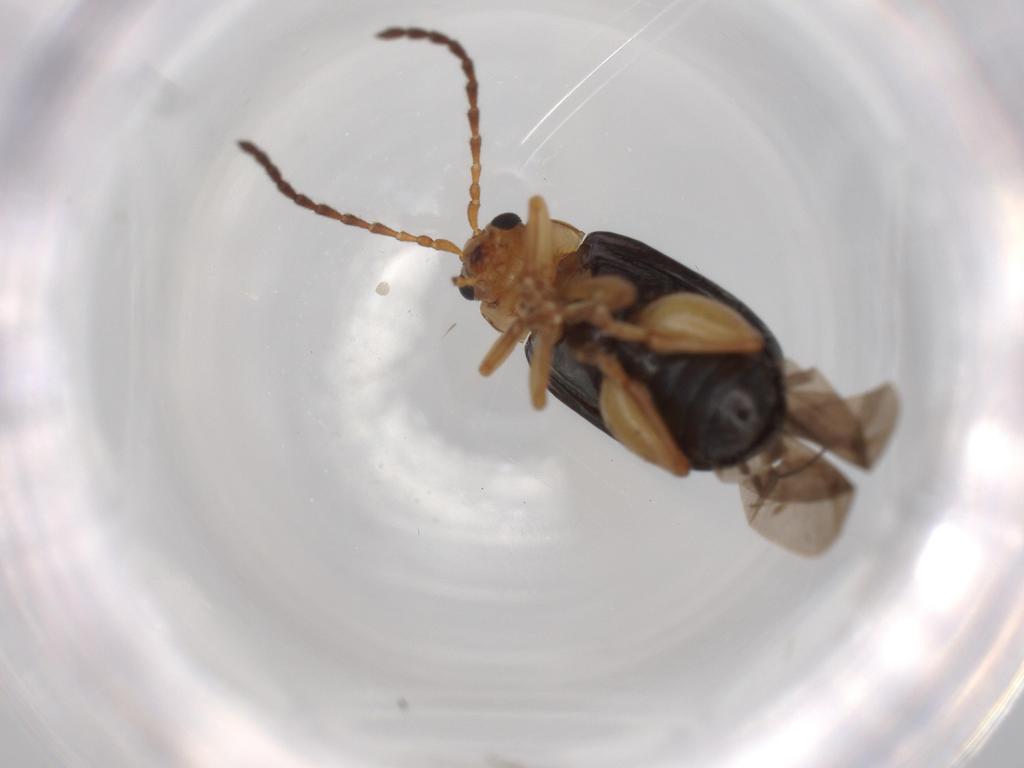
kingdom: Animalia
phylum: Arthropoda
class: Insecta
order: Coleoptera
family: Chrysomelidae
